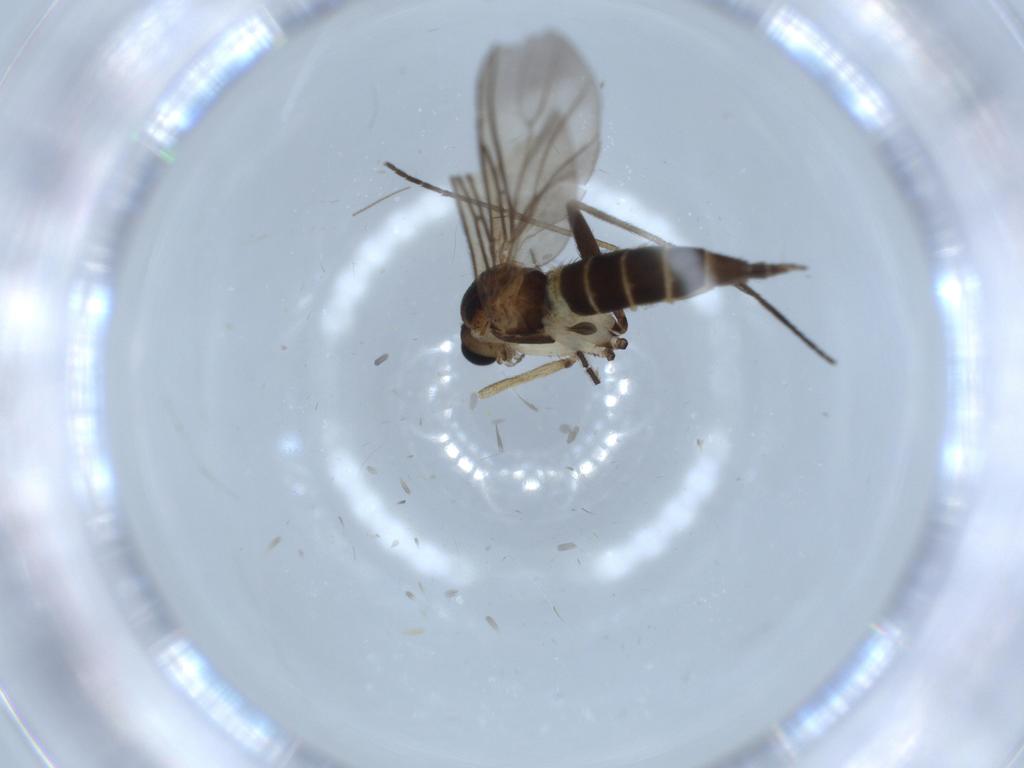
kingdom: Animalia
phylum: Arthropoda
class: Insecta
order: Diptera
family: Sciaridae
